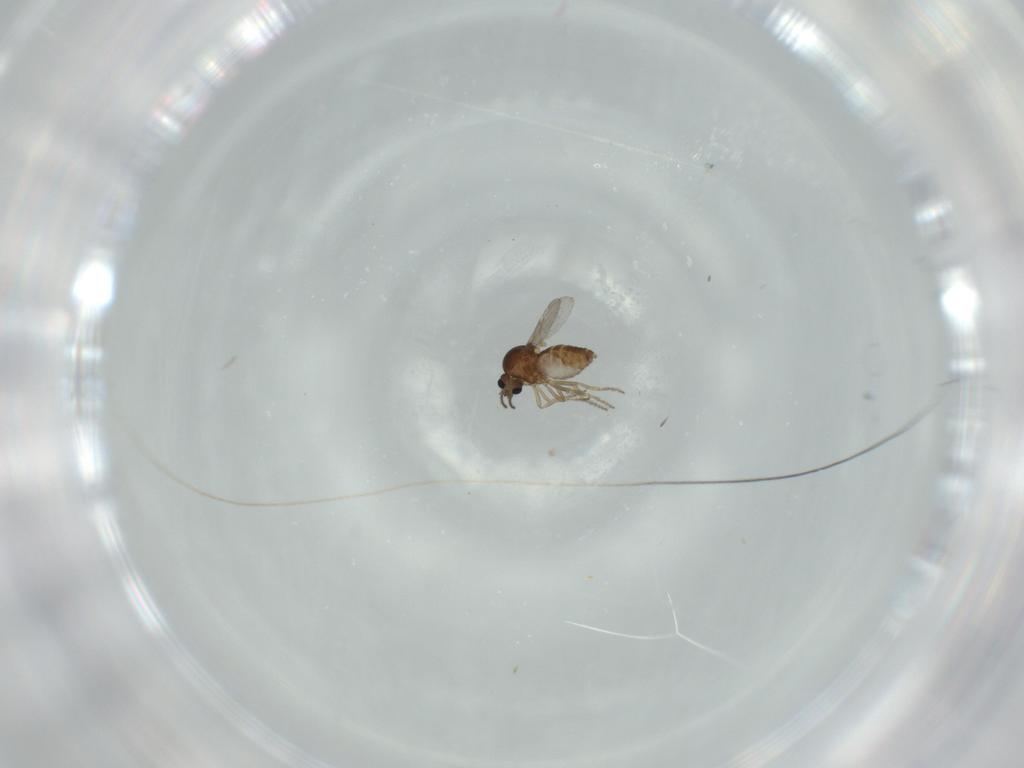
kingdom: Animalia
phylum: Arthropoda
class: Insecta
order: Diptera
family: Ceratopogonidae
